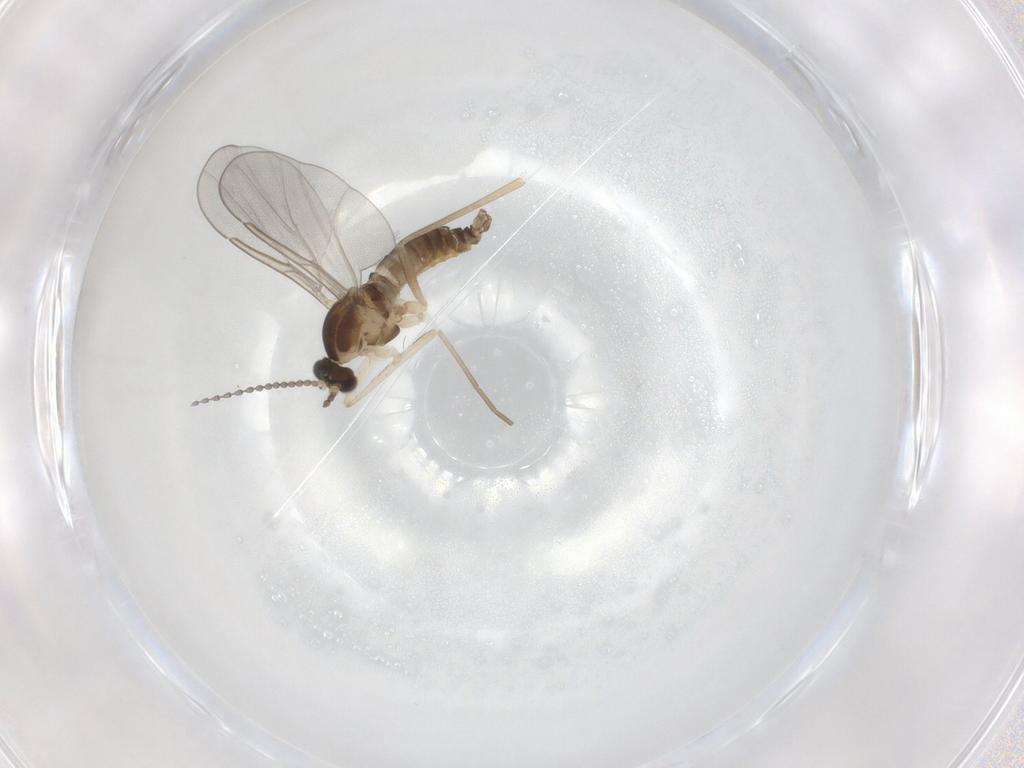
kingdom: Animalia
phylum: Arthropoda
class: Insecta
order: Diptera
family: Cecidomyiidae
